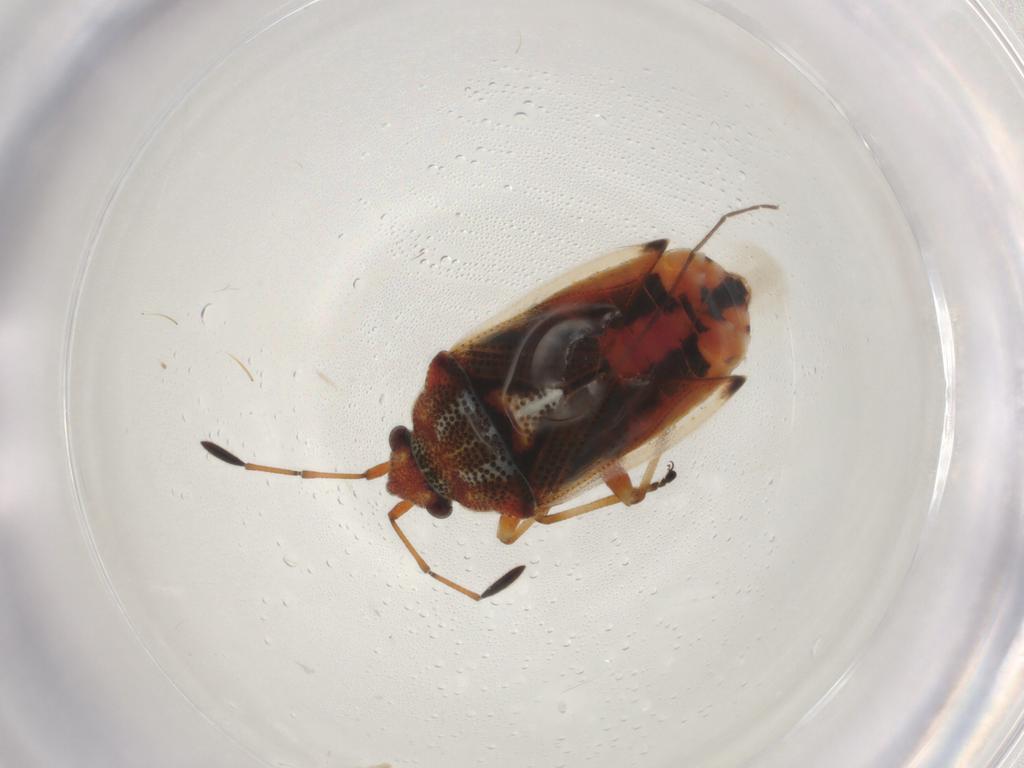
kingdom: Animalia
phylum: Arthropoda
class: Insecta
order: Hemiptera
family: Lygaeidae
